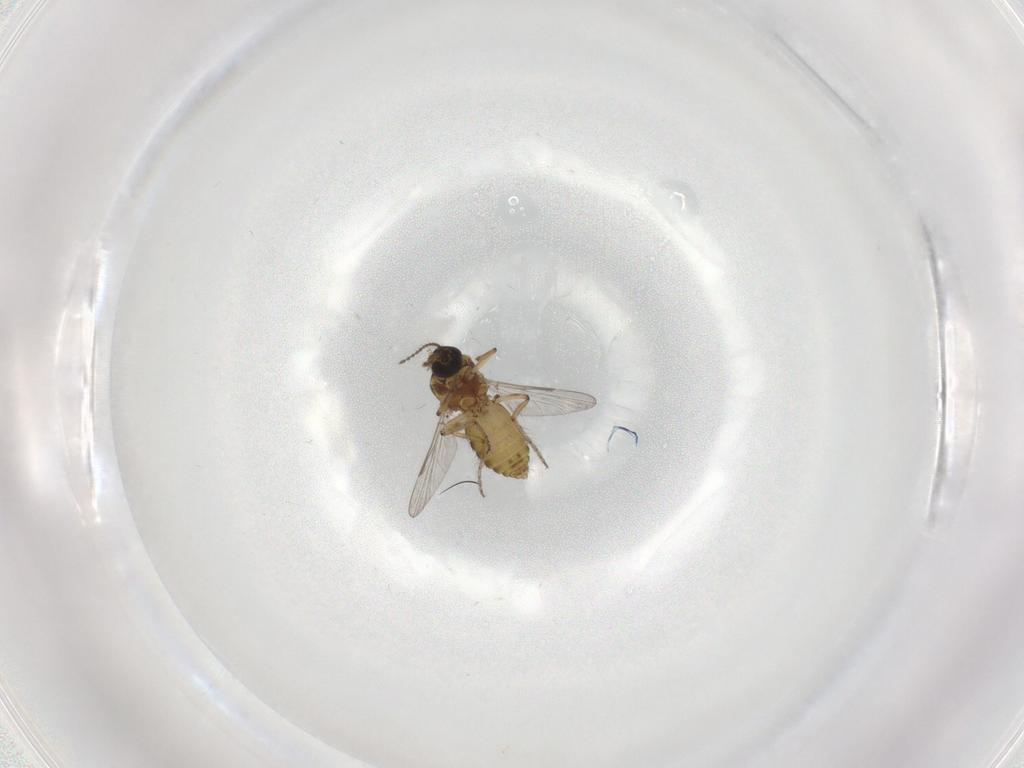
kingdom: Animalia
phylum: Arthropoda
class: Insecta
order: Diptera
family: Ceratopogonidae
